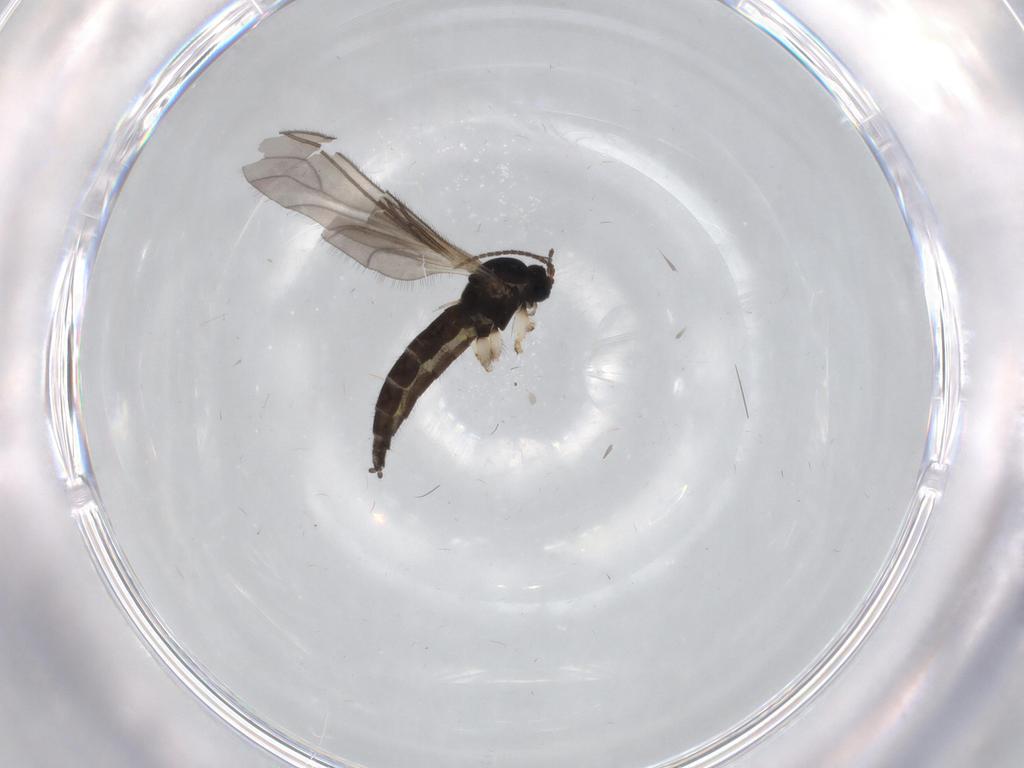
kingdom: Animalia
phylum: Arthropoda
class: Insecta
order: Diptera
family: Sciaridae
